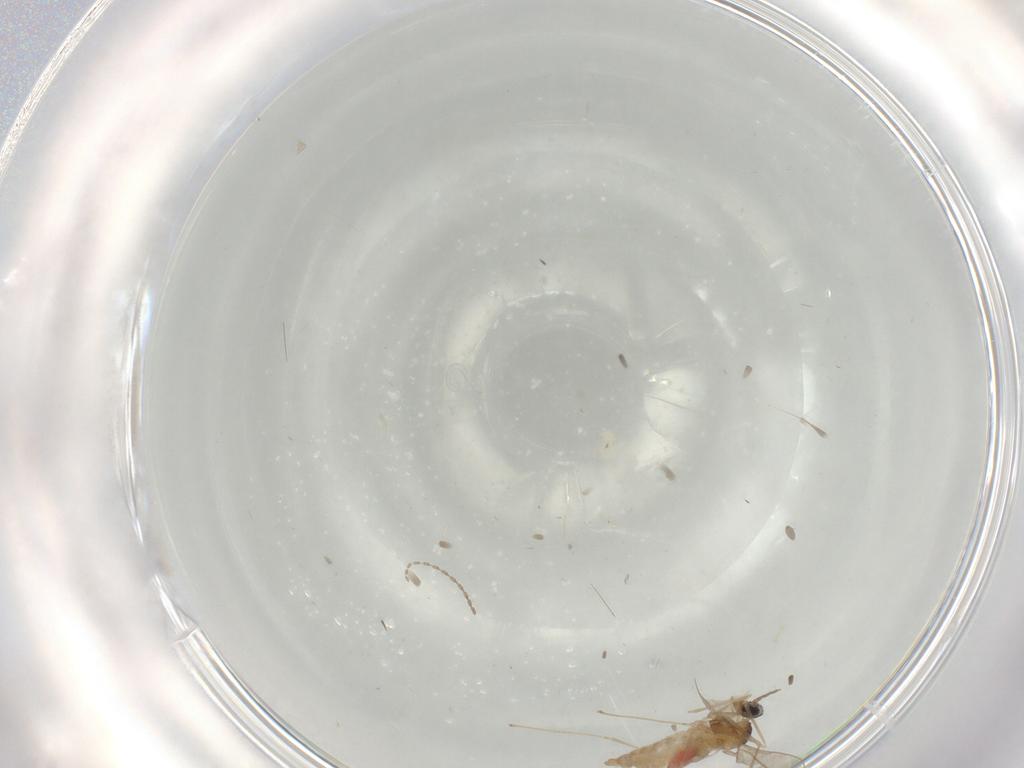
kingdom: Animalia
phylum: Arthropoda
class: Insecta
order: Diptera
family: Cecidomyiidae
